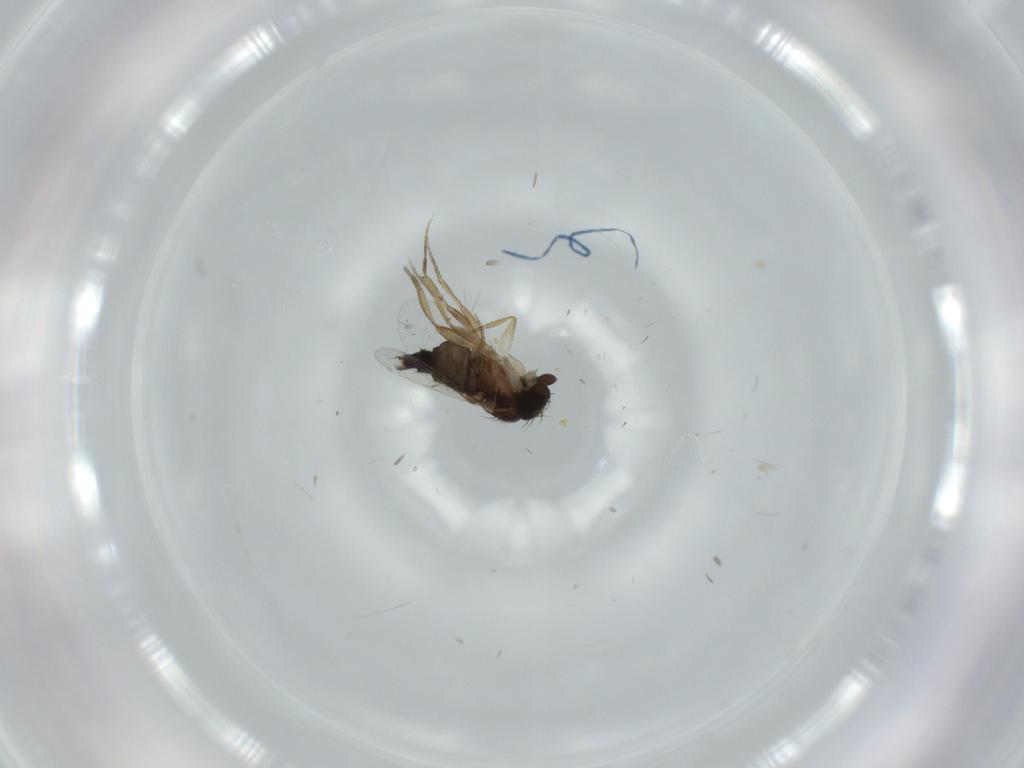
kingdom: Animalia
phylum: Arthropoda
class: Insecta
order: Diptera
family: Phoridae
